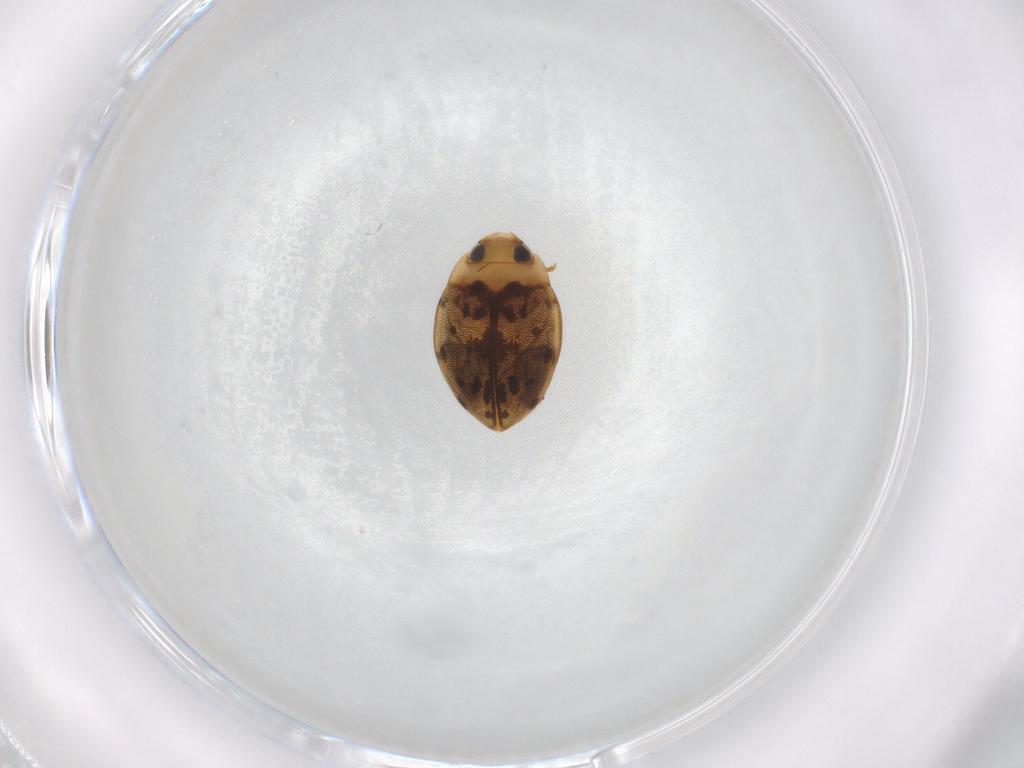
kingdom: Animalia
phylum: Arthropoda
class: Insecta
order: Coleoptera
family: Dytiscidae
